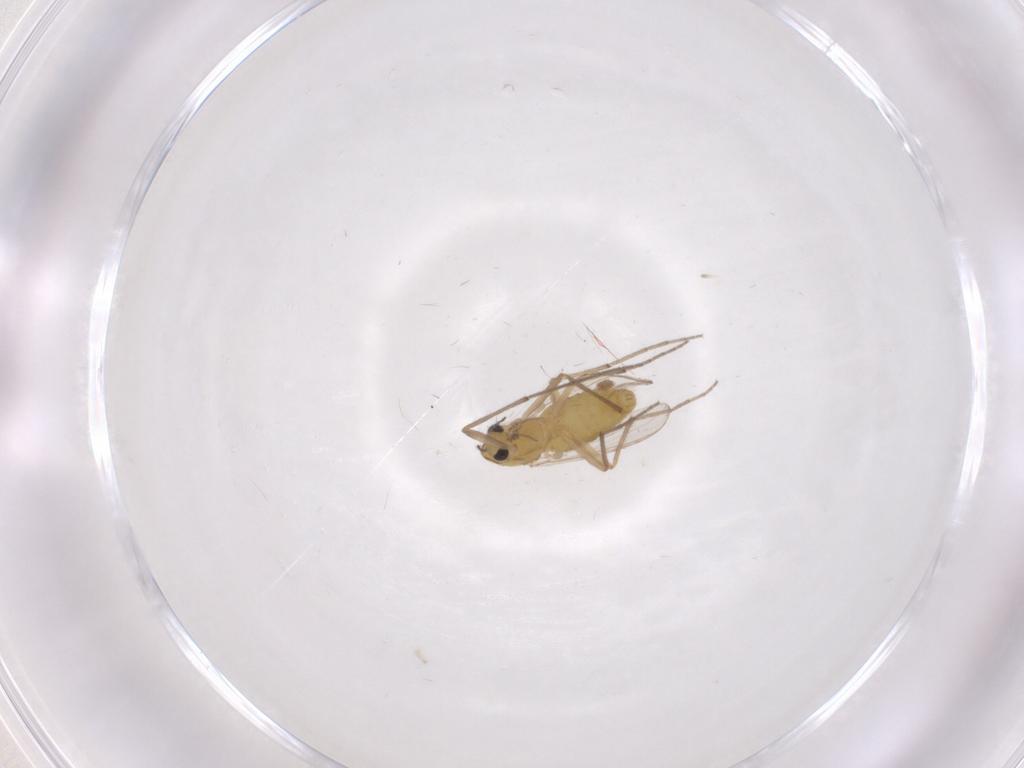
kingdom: Animalia
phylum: Arthropoda
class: Insecta
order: Diptera
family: Chironomidae
